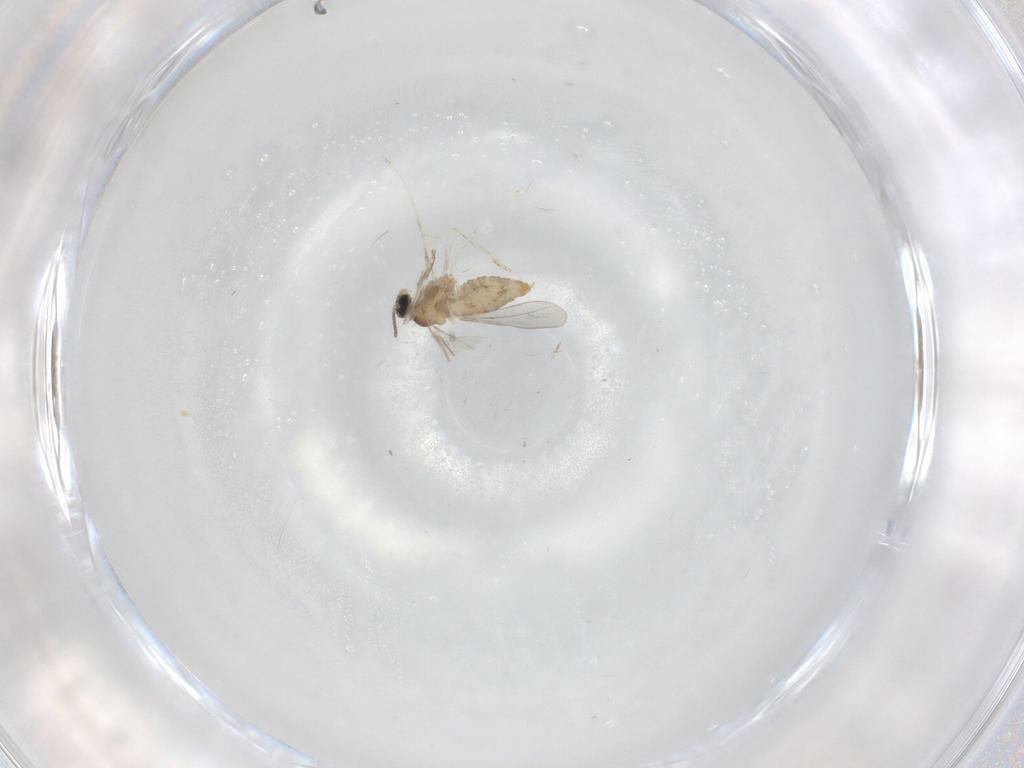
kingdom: Animalia
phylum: Arthropoda
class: Insecta
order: Diptera
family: Cecidomyiidae
